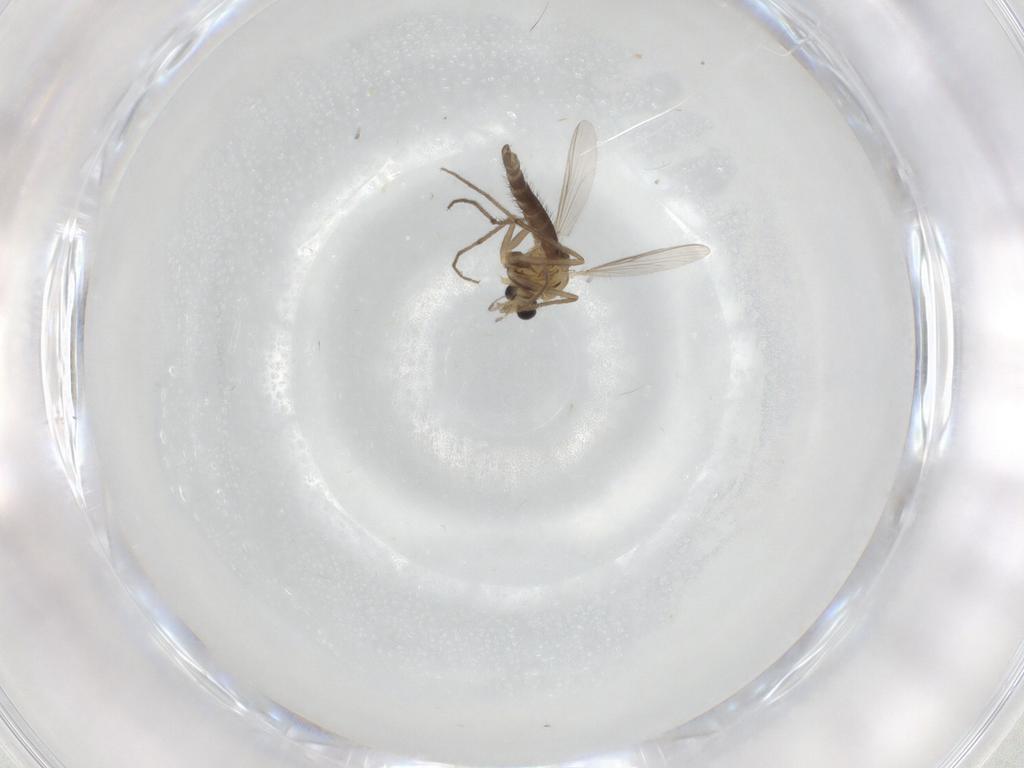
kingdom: Animalia
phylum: Arthropoda
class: Insecta
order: Diptera
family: Chironomidae
